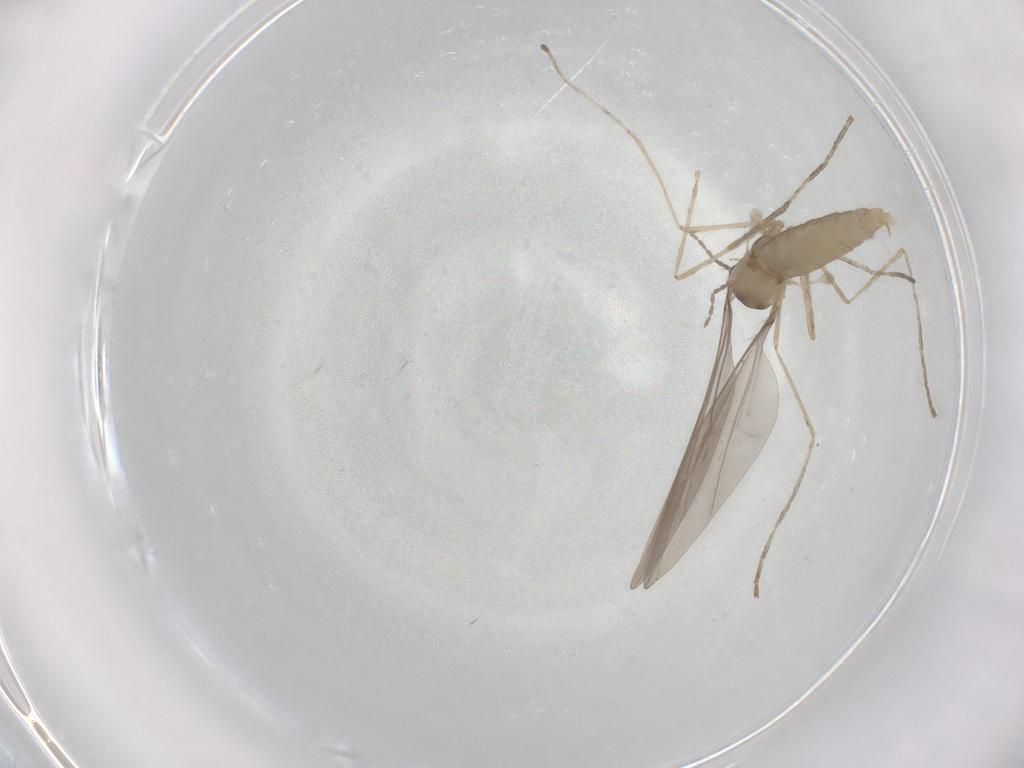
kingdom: Animalia
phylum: Arthropoda
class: Insecta
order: Diptera
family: Cecidomyiidae
